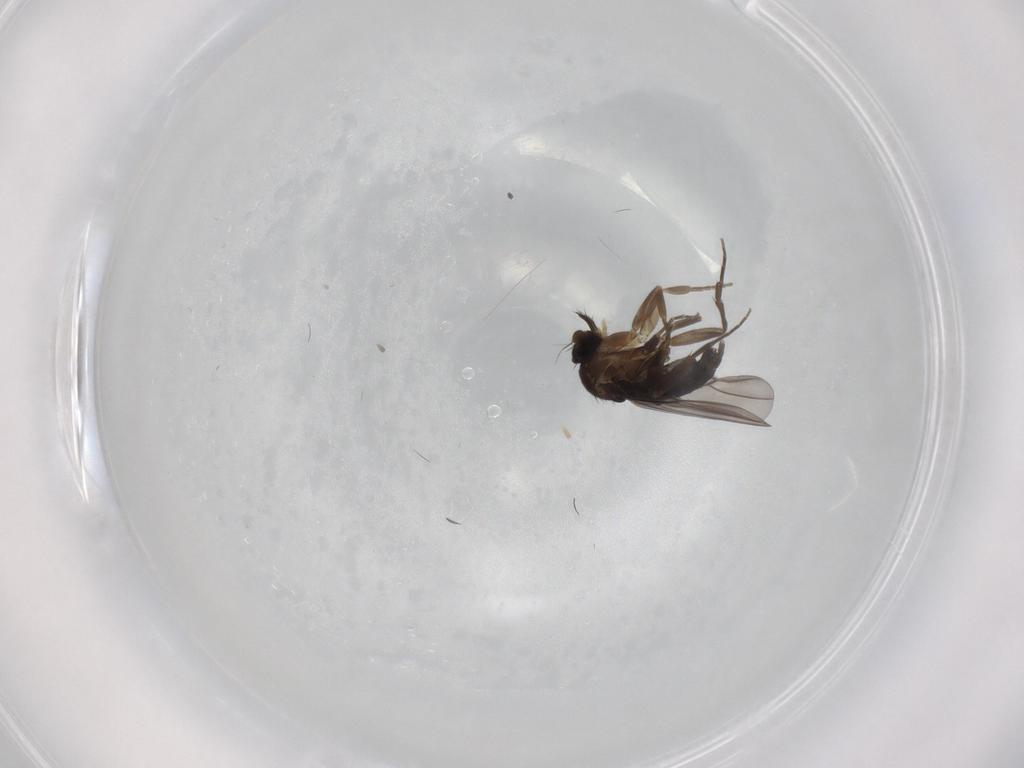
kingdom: Animalia
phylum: Arthropoda
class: Insecta
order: Diptera
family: Phoridae
